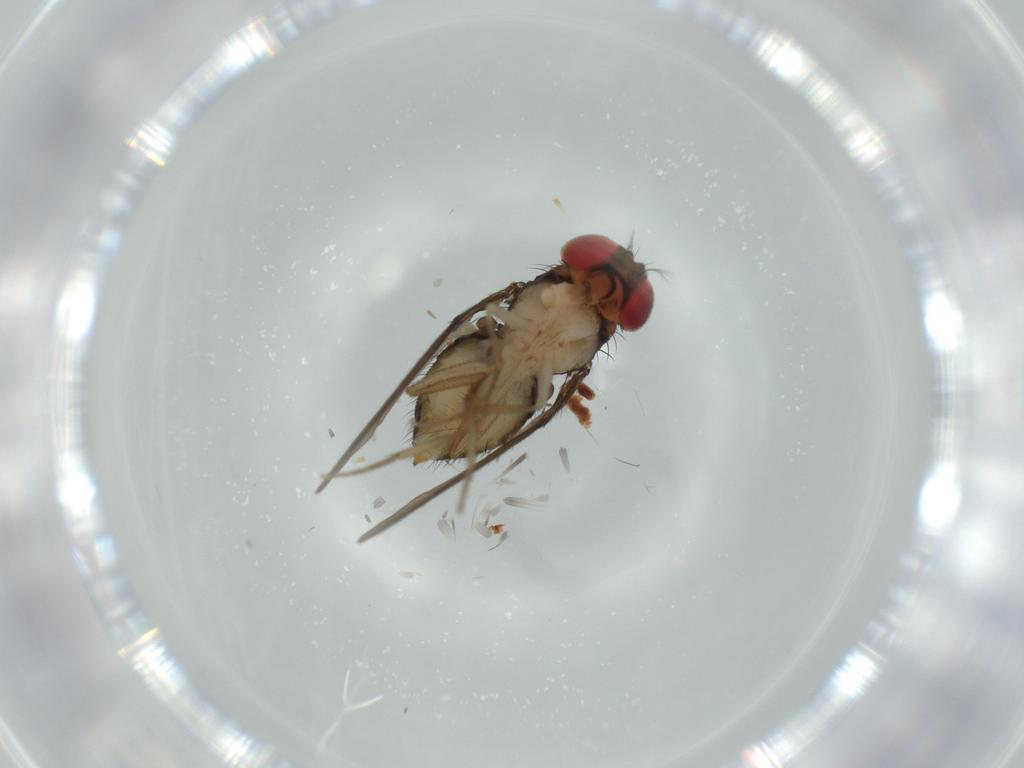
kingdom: Animalia
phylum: Arthropoda
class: Insecta
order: Diptera
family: Drosophilidae
